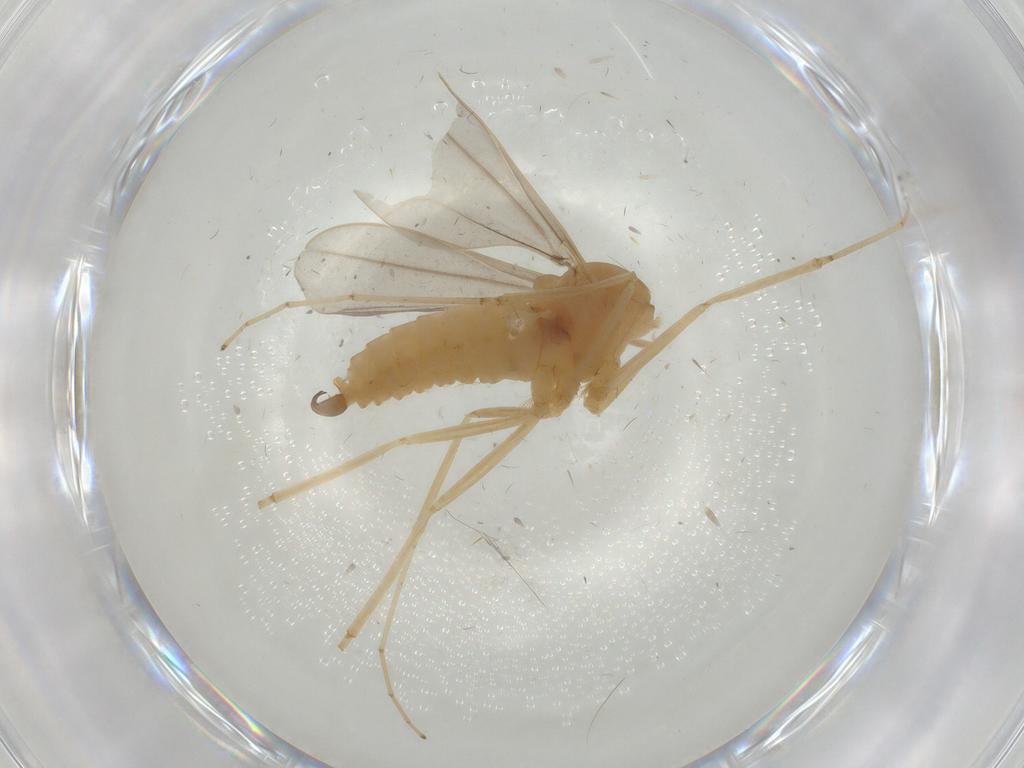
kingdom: Animalia
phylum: Arthropoda
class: Insecta
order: Diptera
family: Cecidomyiidae
